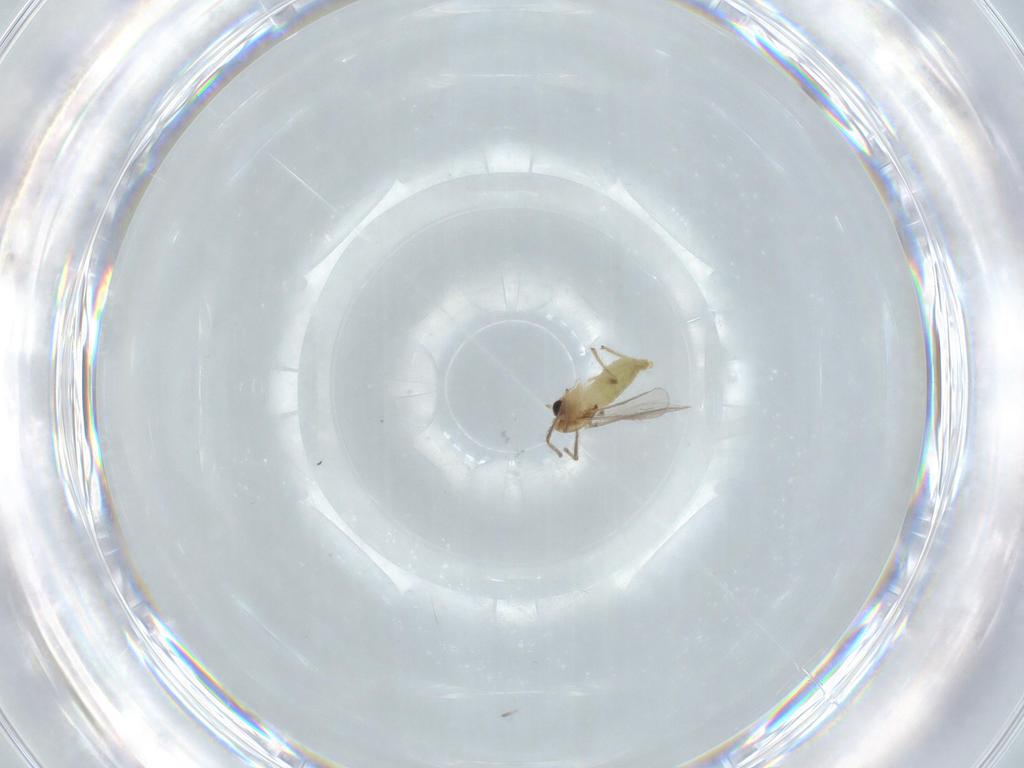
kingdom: Animalia
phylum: Arthropoda
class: Insecta
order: Diptera
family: Chironomidae
